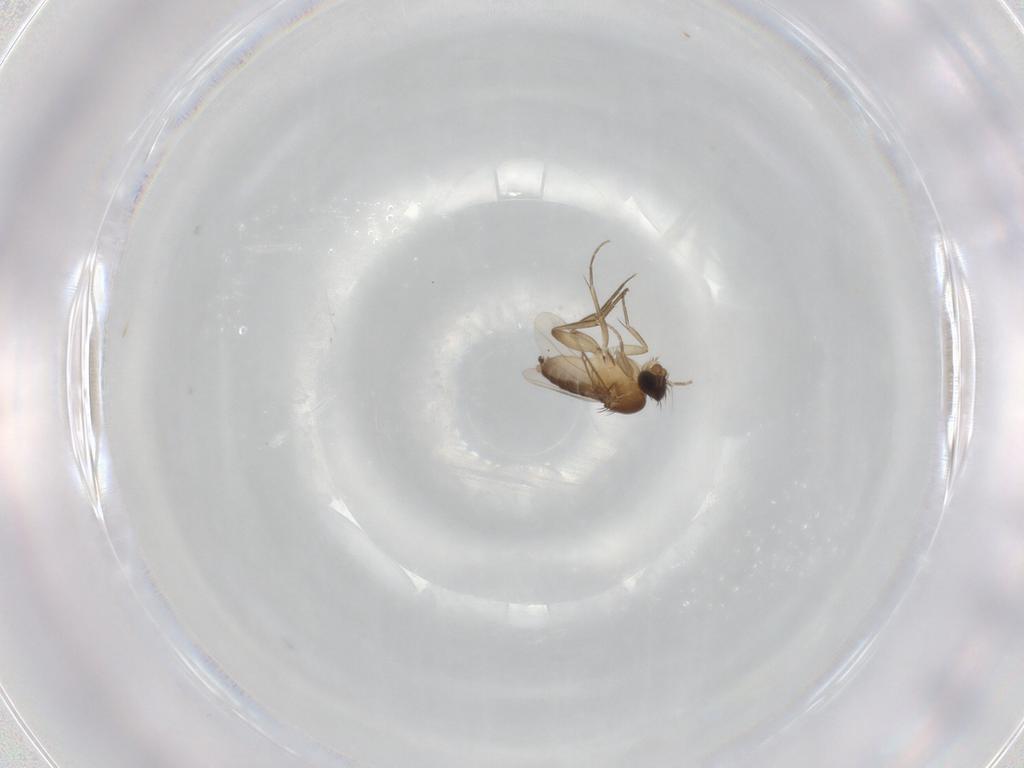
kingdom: Animalia
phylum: Arthropoda
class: Insecta
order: Diptera
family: Phoridae
